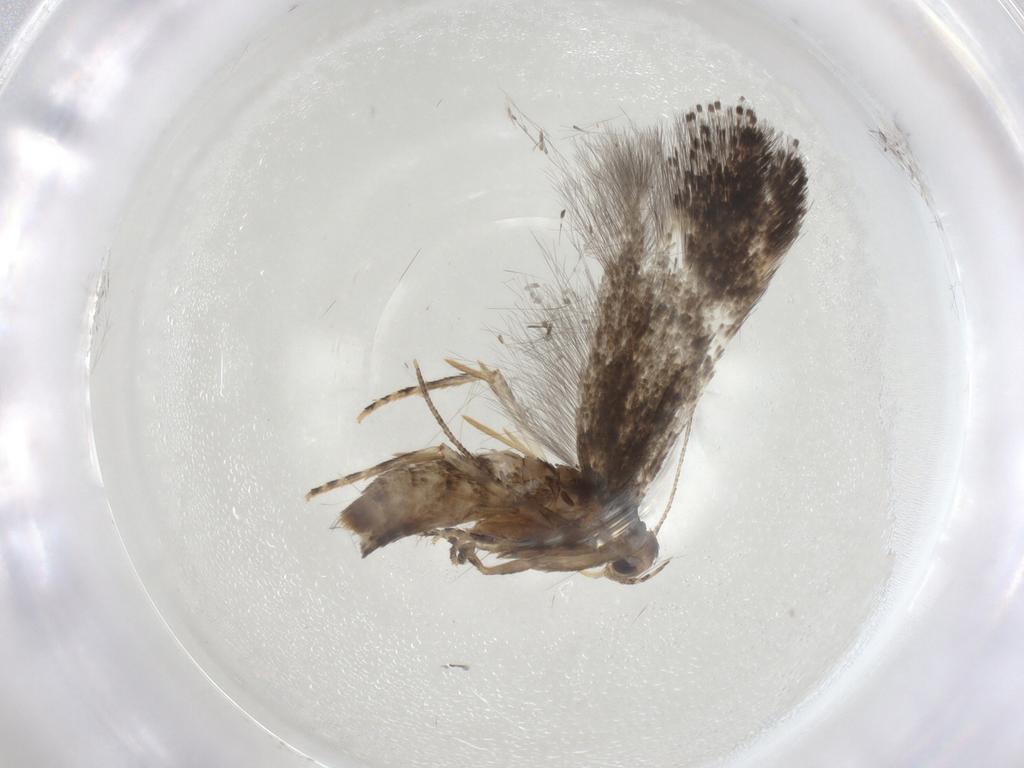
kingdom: Animalia
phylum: Arthropoda
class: Insecta
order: Lepidoptera
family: Elachistidae
